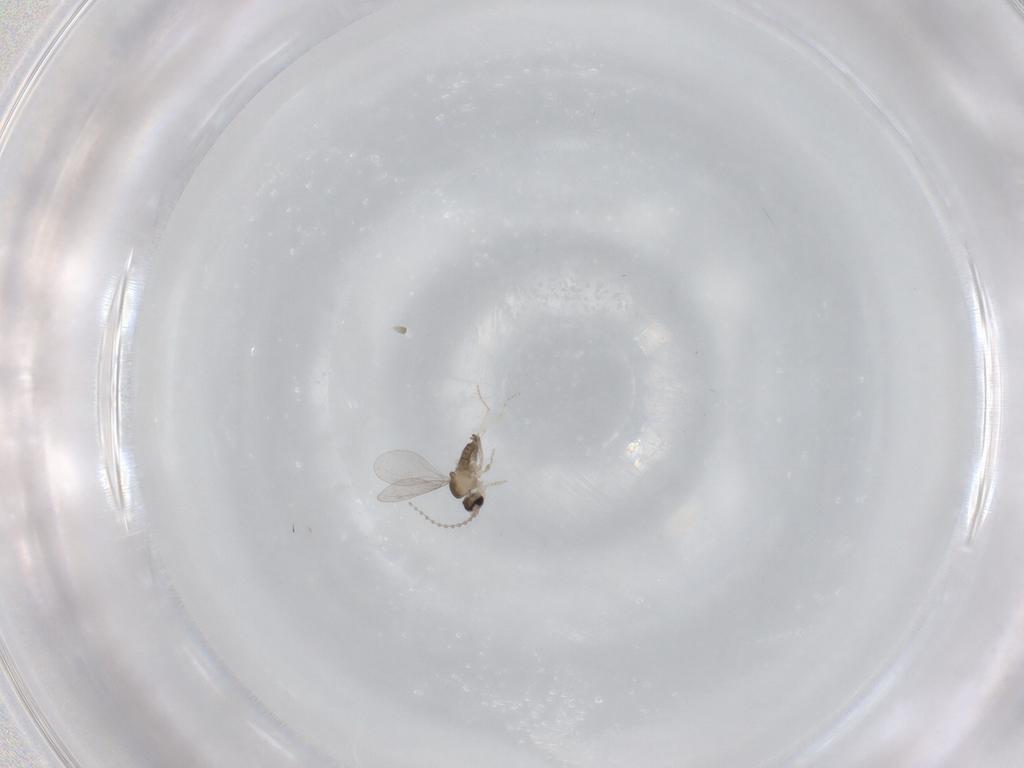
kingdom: Animalia
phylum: Arthropoda
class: Insecta
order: Diptera
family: Cecidomyiidae
